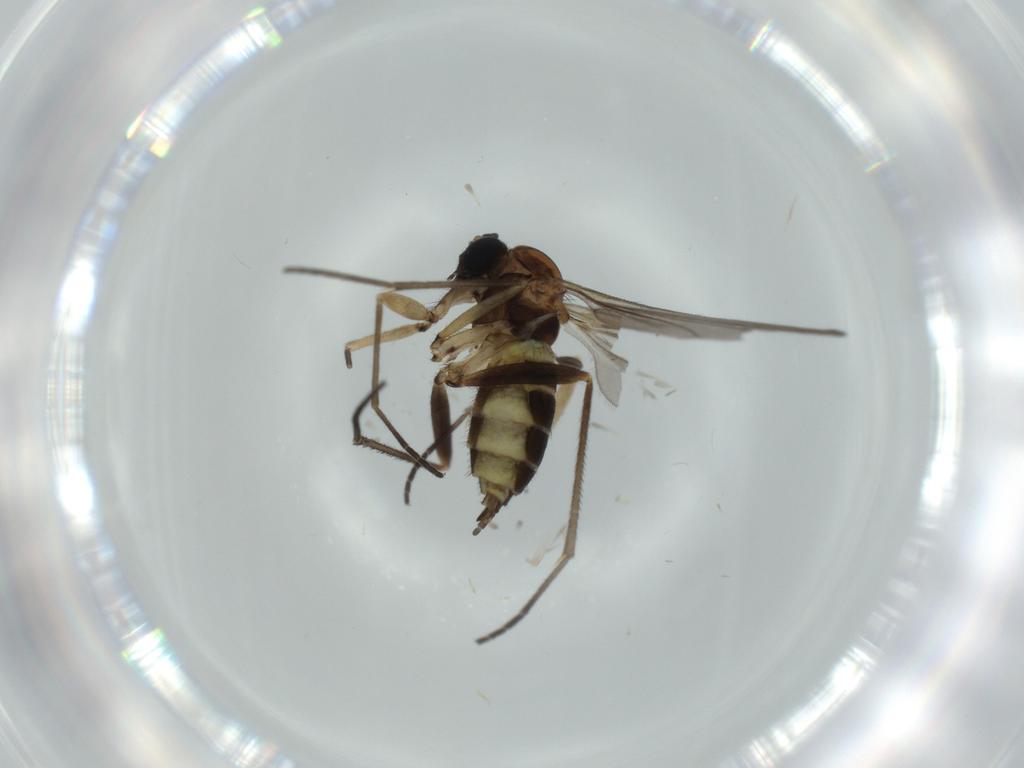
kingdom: Animalia
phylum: Arthropoda
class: Insecta
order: Diptera
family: Sciaridae
